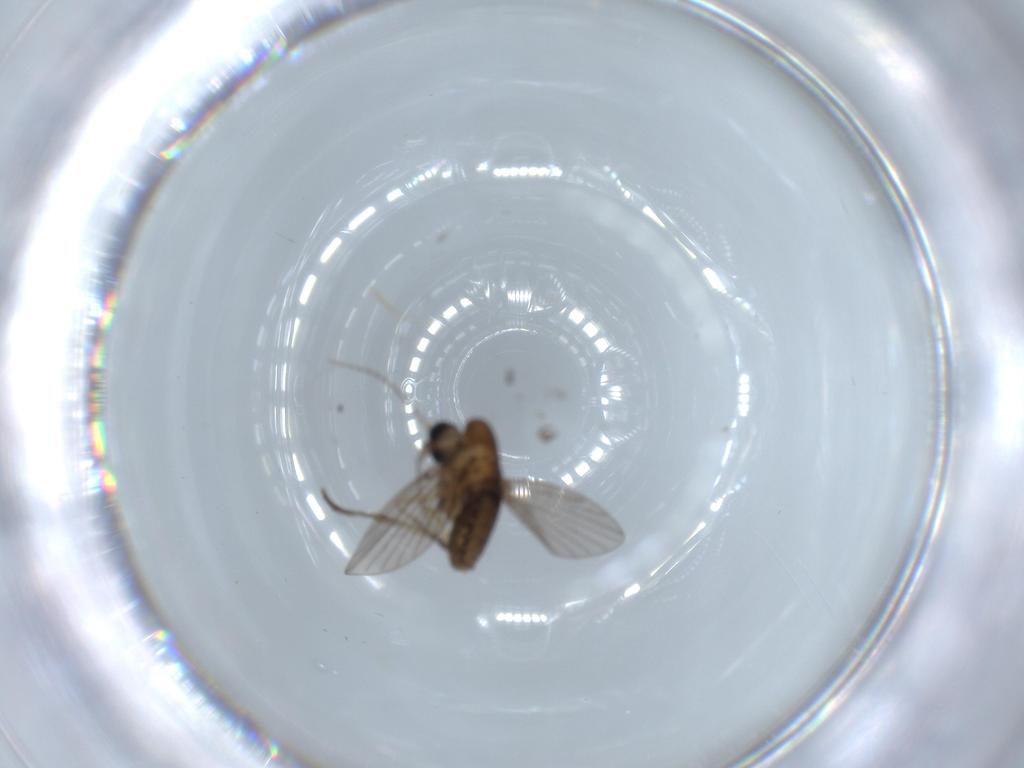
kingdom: Animalia
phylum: Arthropoda
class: Insecta
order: Diptera
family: Psychodidae
